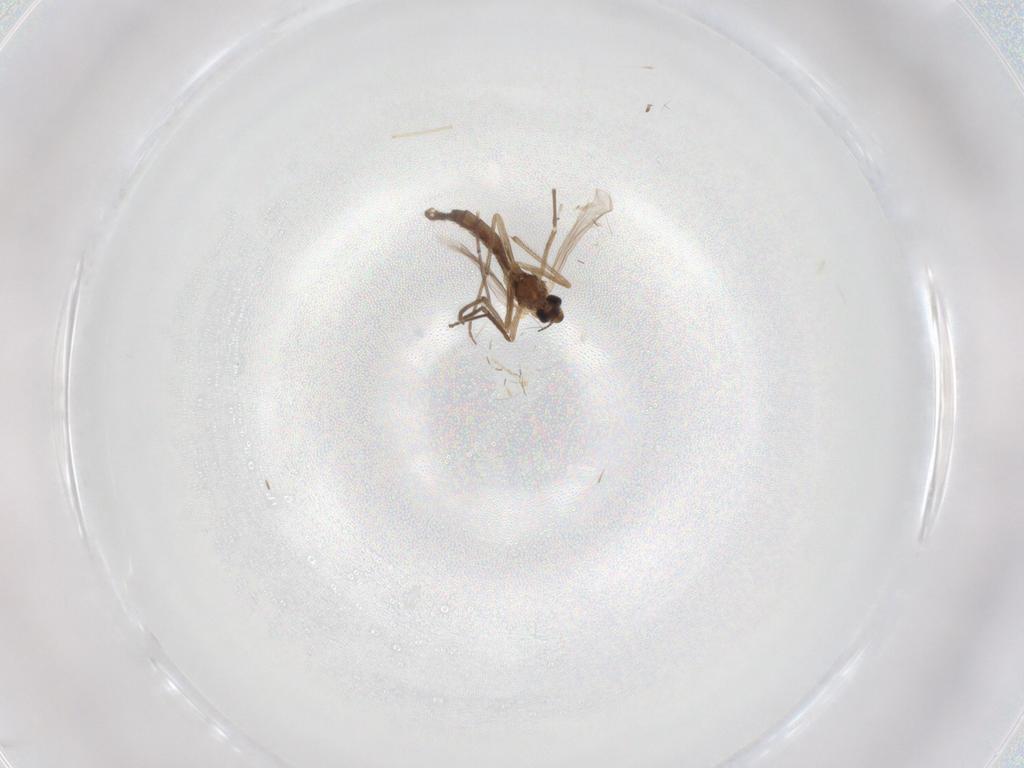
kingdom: Animalia
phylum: Arthropoda
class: Insecta
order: Diptera
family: Chironomidae
